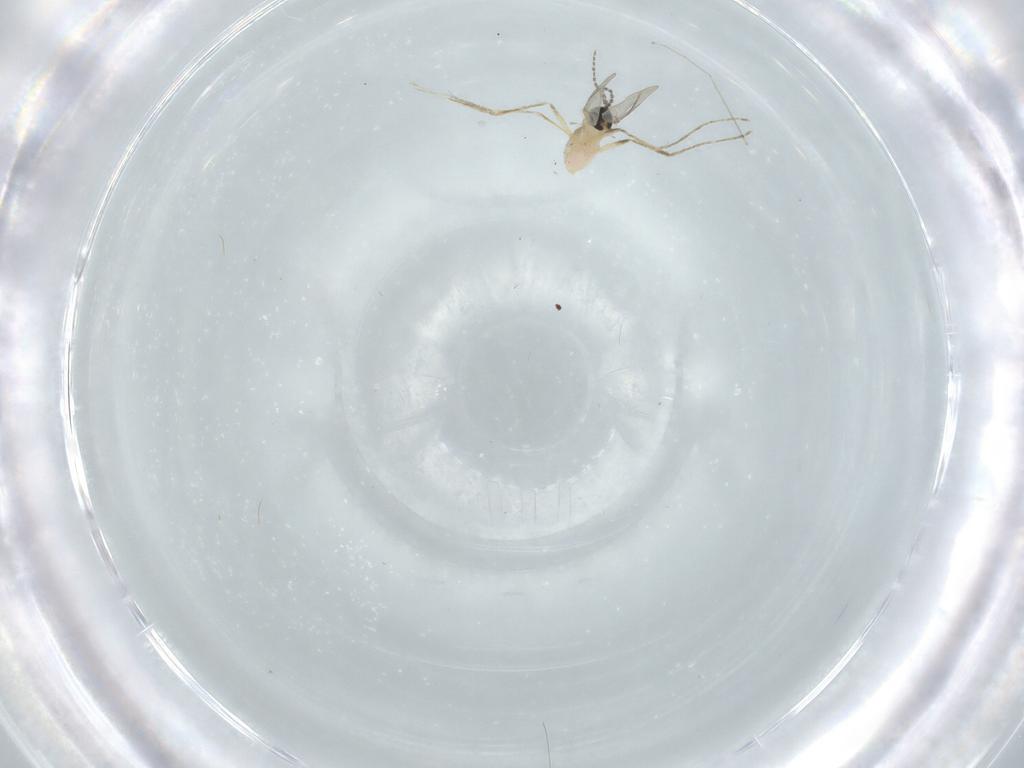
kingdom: Animalia
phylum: Arthropoda
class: Insecta
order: Diptera
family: Cecidomyiidae
